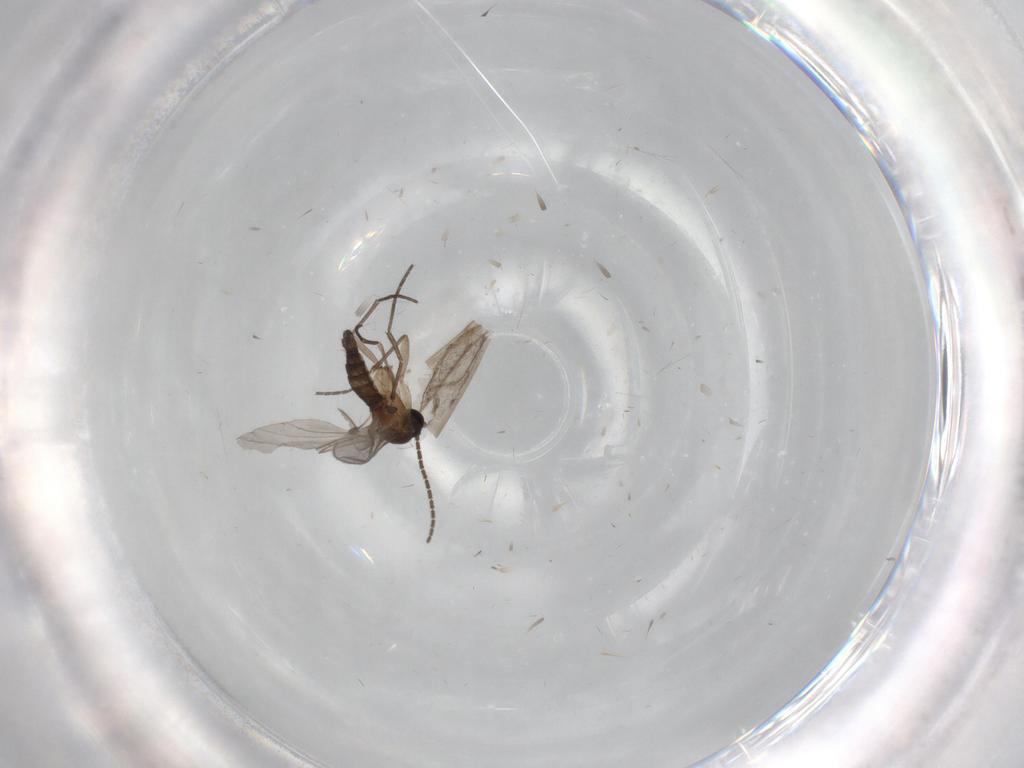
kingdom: Animalia
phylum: Arthropoda
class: Insecta
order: Diptera
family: Sciaridae
